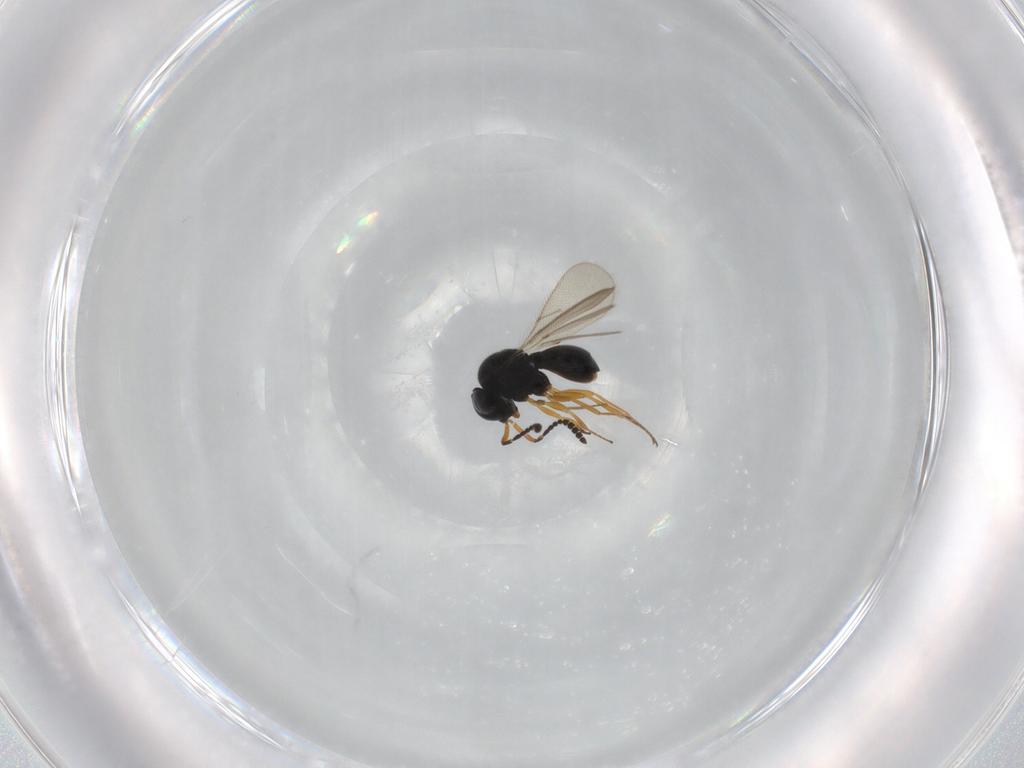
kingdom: Animalia
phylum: Arthropoda
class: Insecta
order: Hymenoptera
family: Scelionidae
